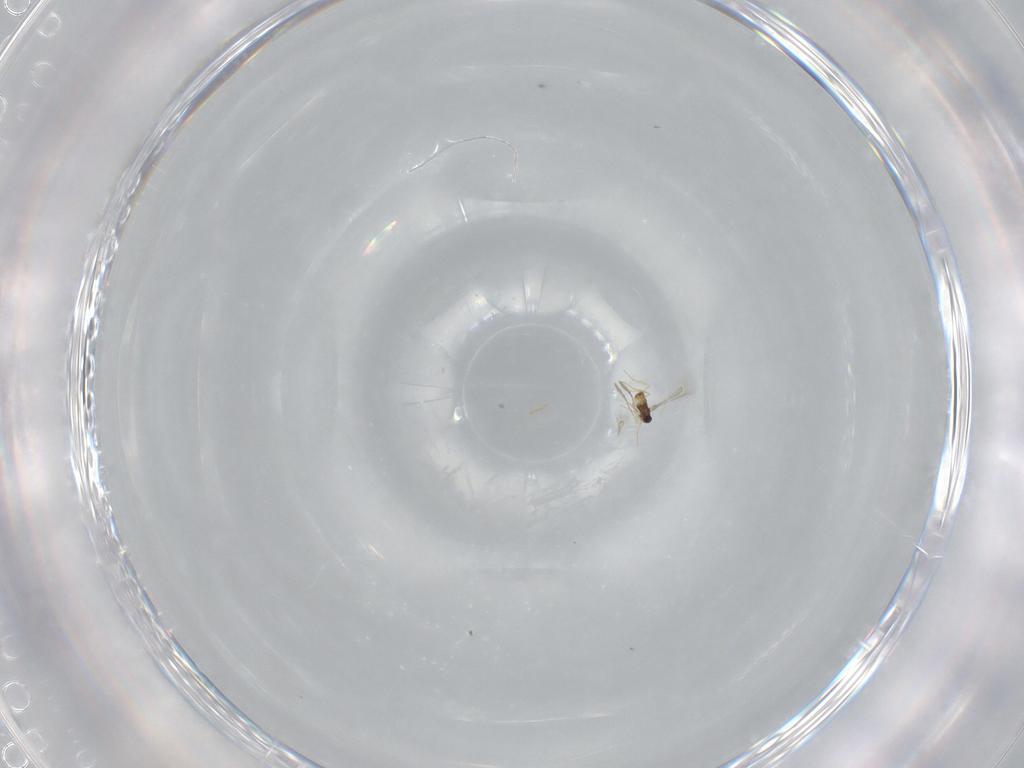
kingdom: Animalia
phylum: Arthropoda
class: Insecta
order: Hymenoptera
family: Mymaridae
